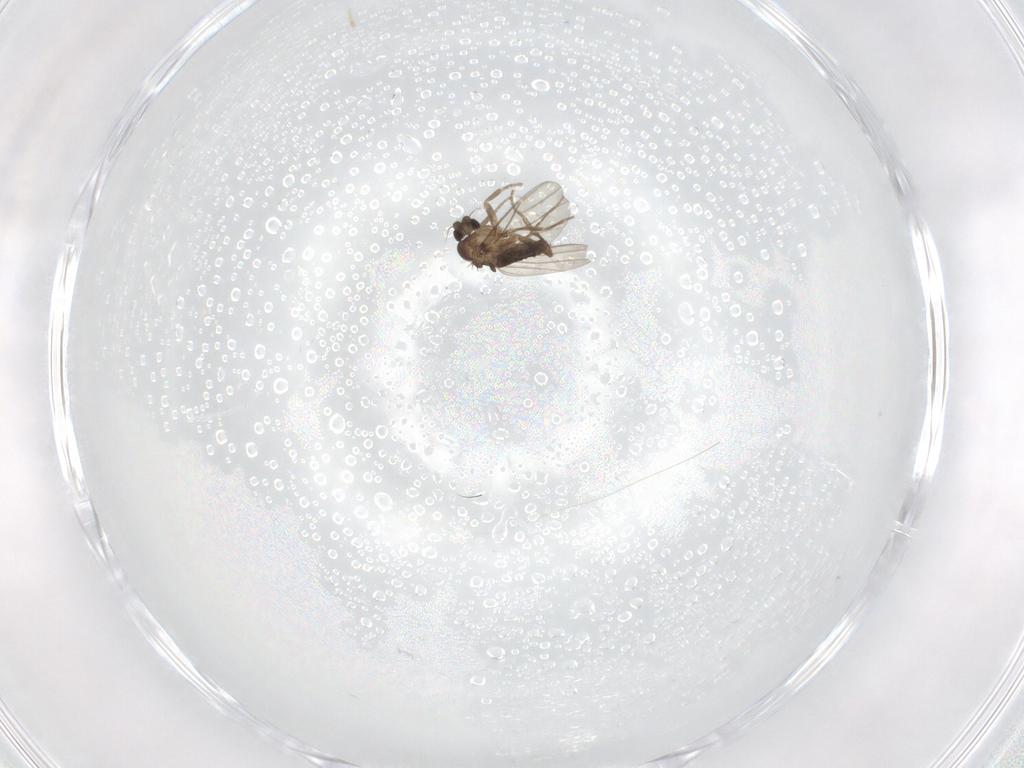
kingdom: Animalia
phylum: Arthropoda
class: Insecta
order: Diptera
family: Phoridae
